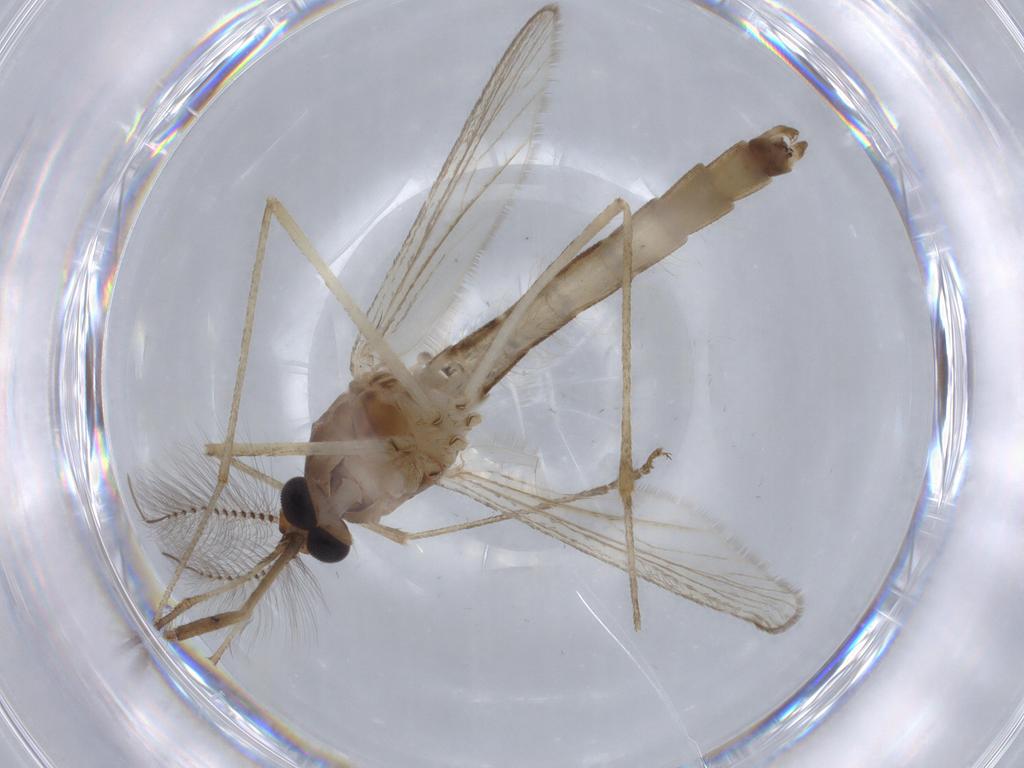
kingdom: Animalia
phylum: Arthropoda
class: Insecta
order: Diptera
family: Culicidae
